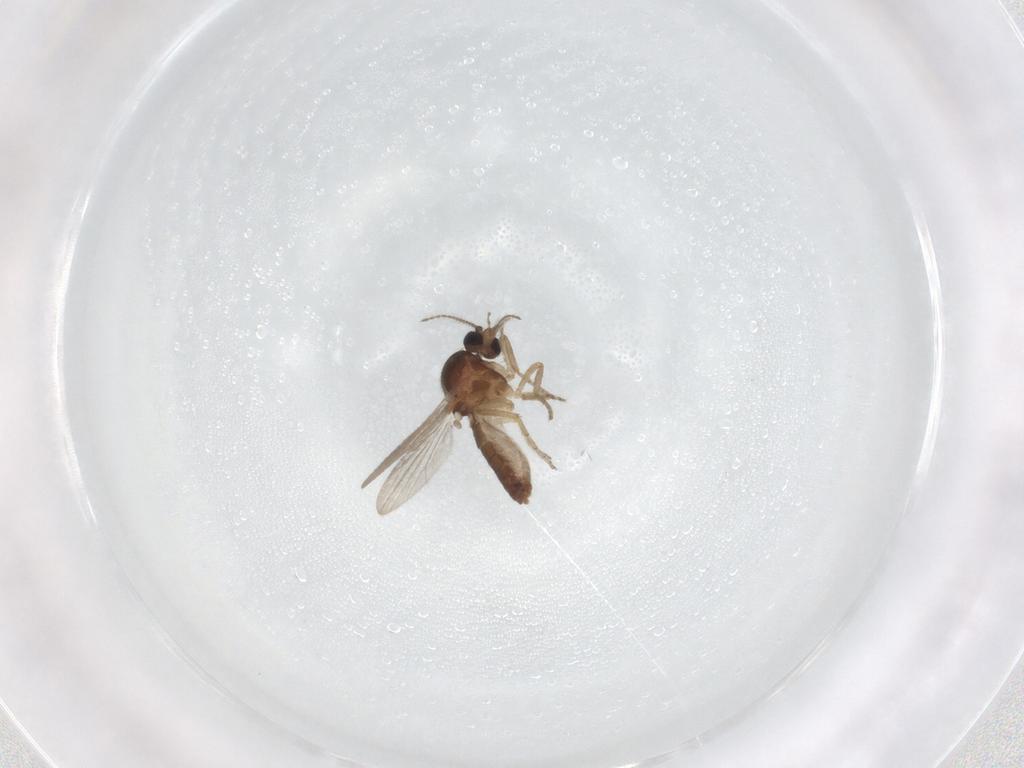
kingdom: Animalia
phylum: Arthropoda
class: Insecta
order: Diptera
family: Ceratopogonidae
